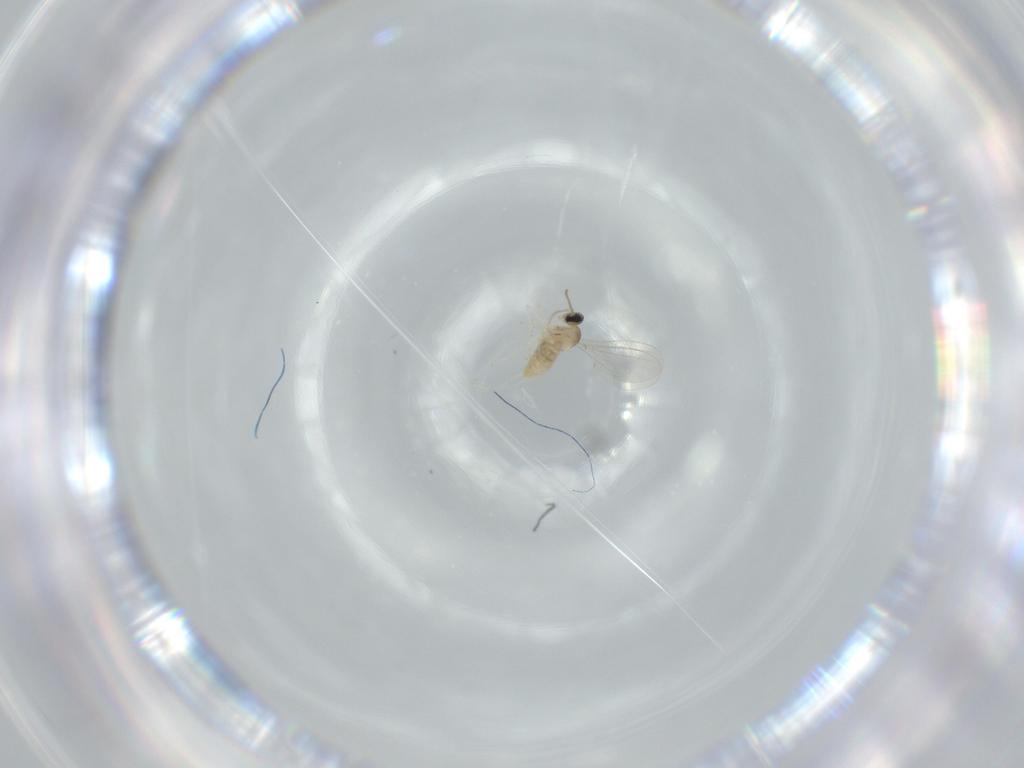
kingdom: Animalia
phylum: Arthropoda
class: Insecta
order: Diptera
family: Cecidomyiidae
